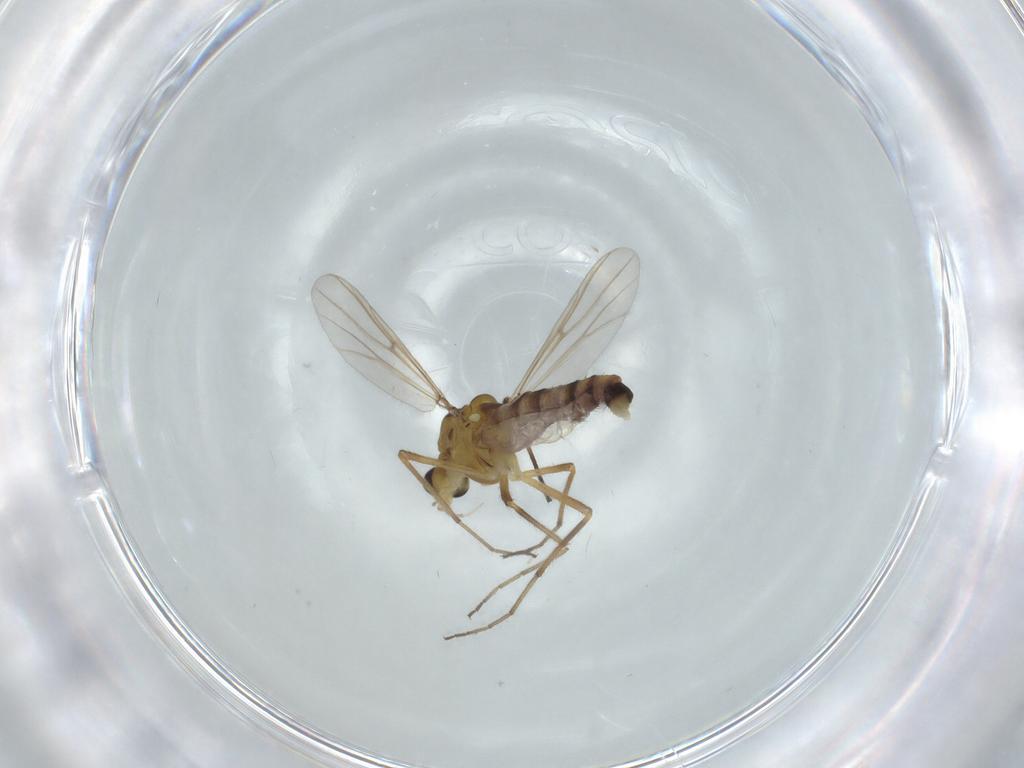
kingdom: Animalia
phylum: Arthropoda
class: Insecta
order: Diptera
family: Chironomidae
